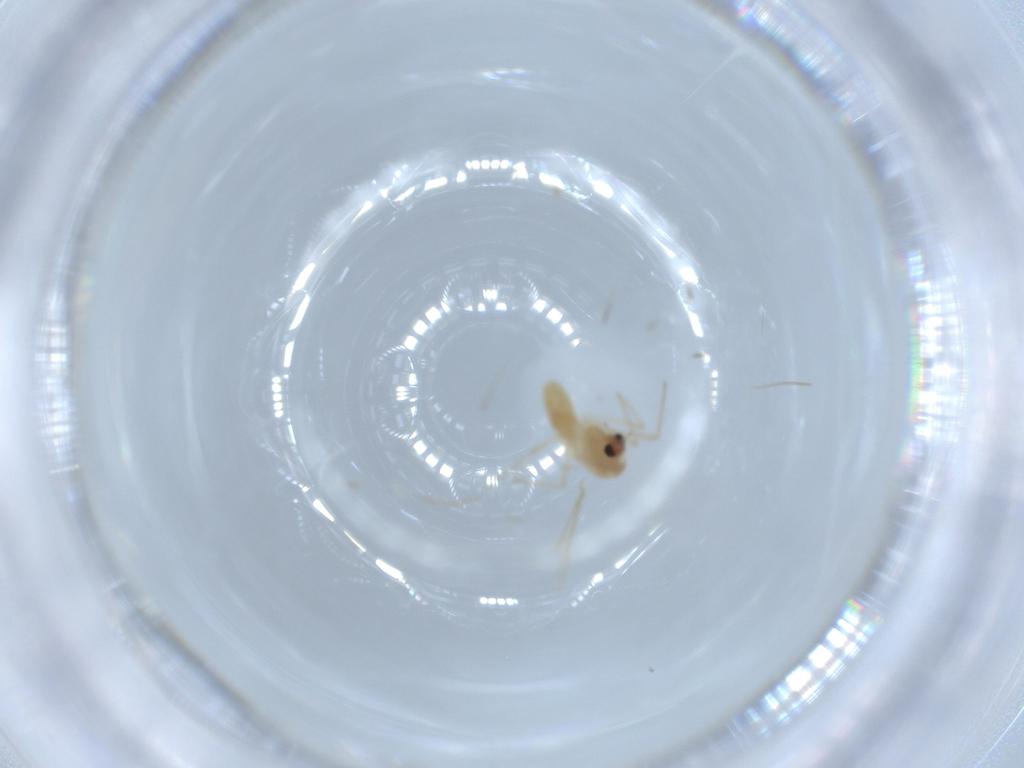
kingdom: Animalia
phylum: Arthropoda
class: Insecta
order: Diptera
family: Chironomidae
